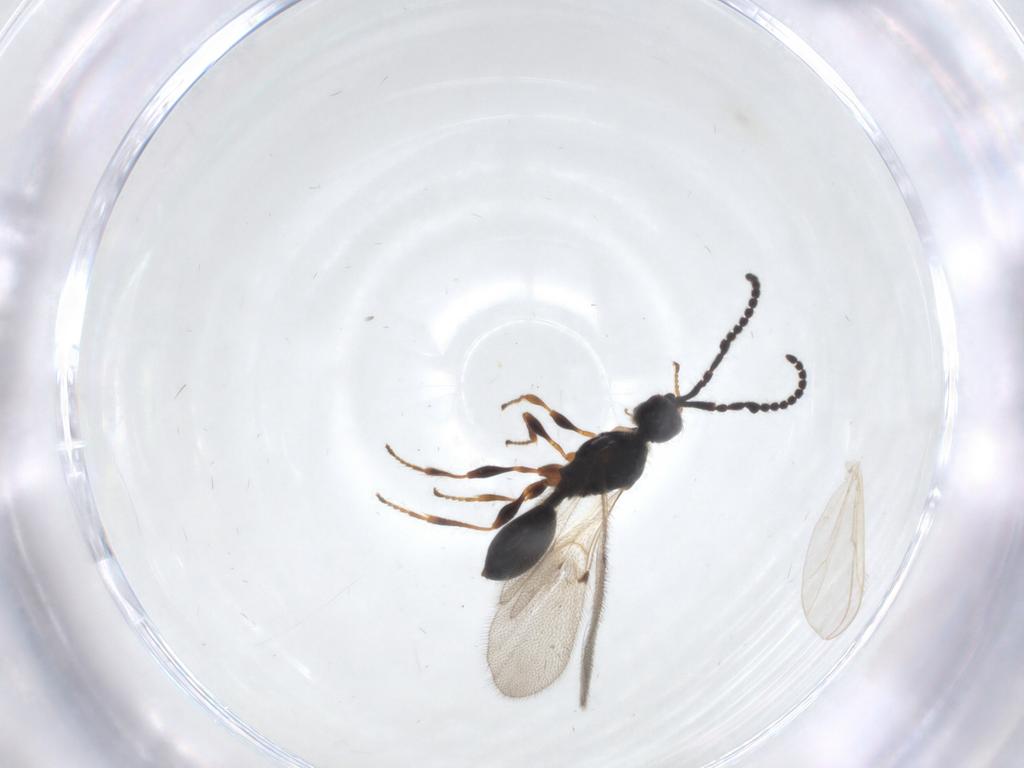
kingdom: Animalia
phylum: Arthropoda
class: Insecta
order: Hymenoptera
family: Diapriidae
